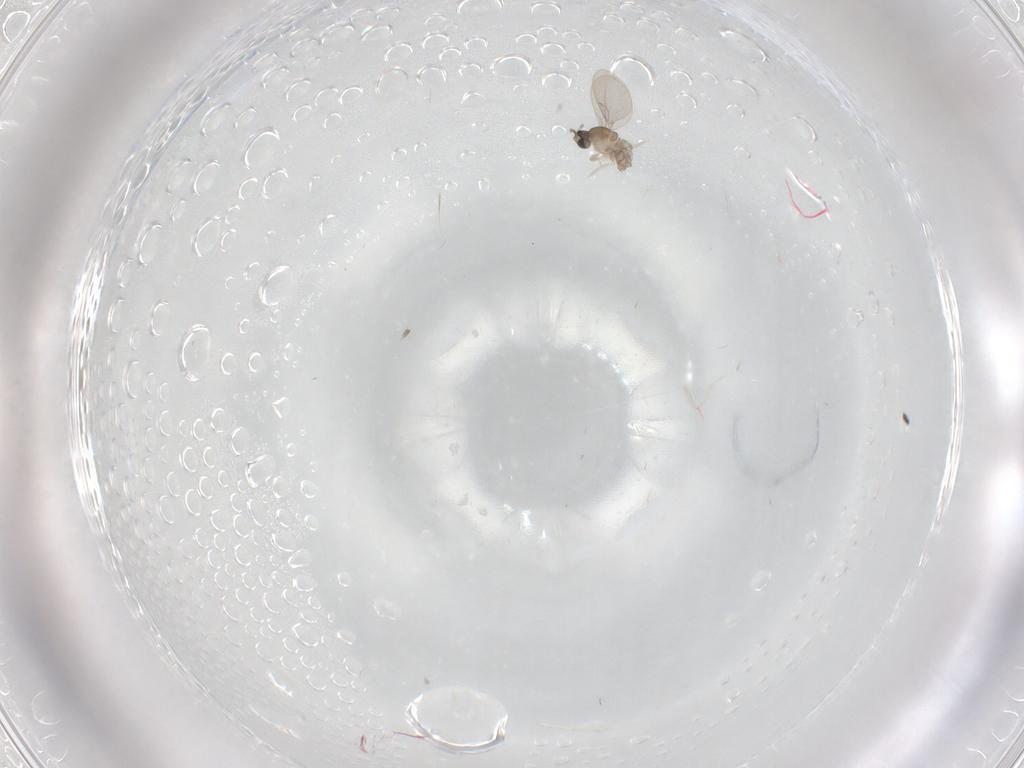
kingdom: Animalia
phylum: Arthropoda
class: Insecta
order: Diptera
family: Cecidomyiidae
